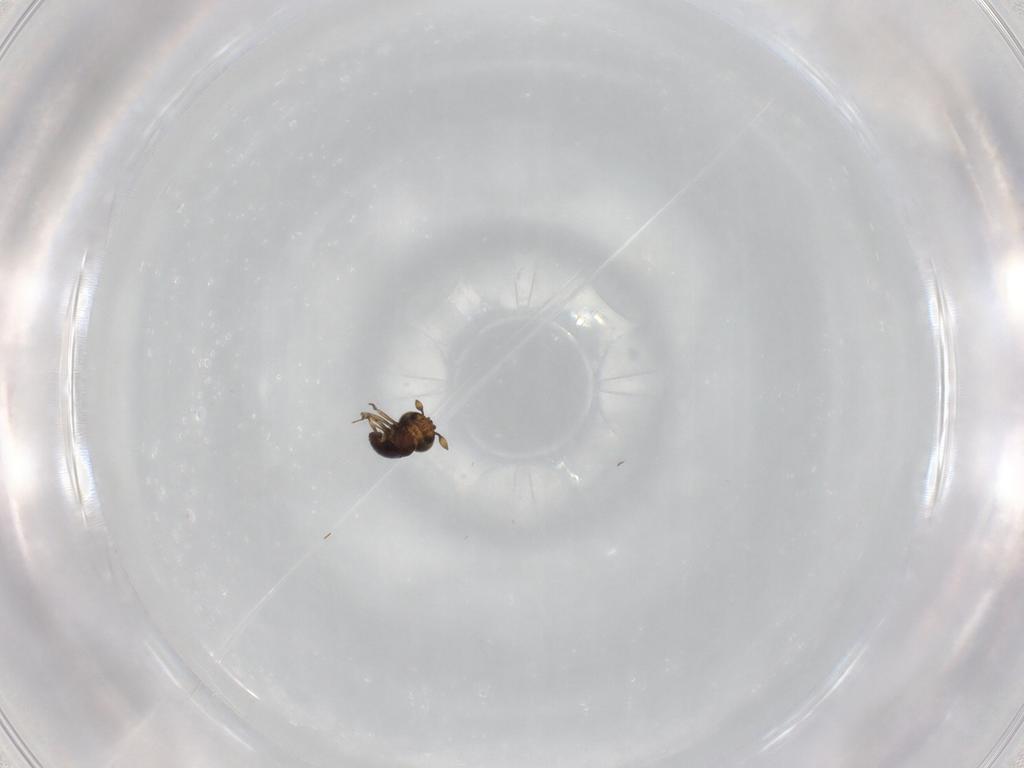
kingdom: Animalia
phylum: Arthropoda
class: Insecta
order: Hymenoptera
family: Scelionidae
